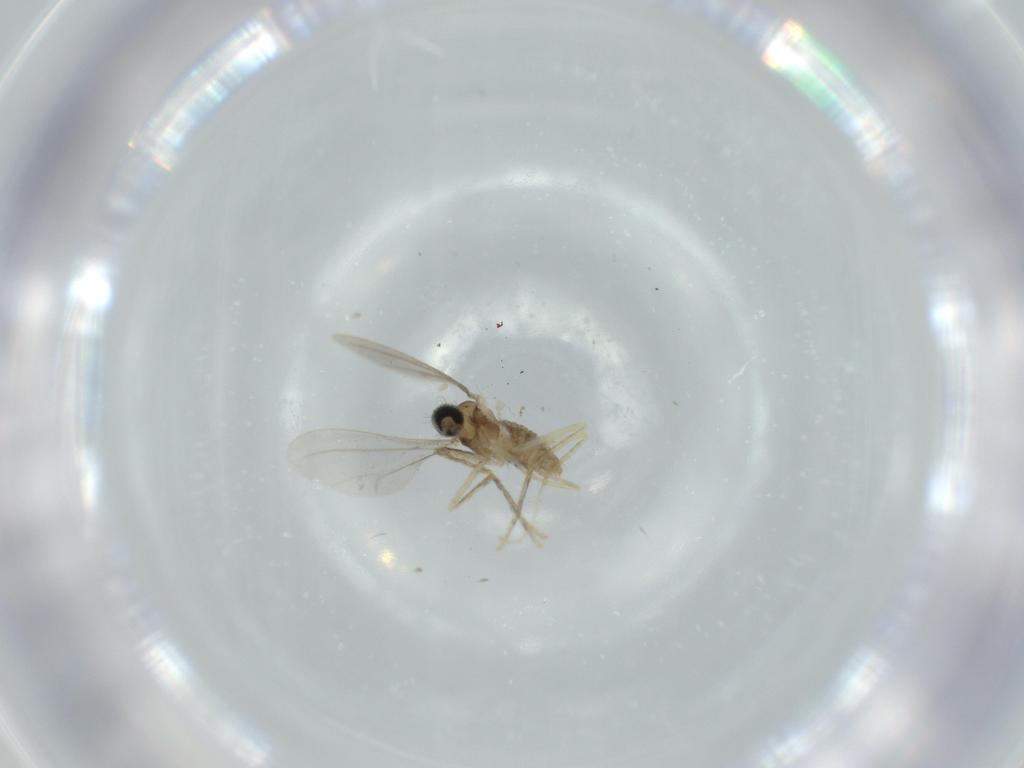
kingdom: Animalia
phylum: Arthropoda
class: Insecta
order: Diptera
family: Cecidomyiidae
